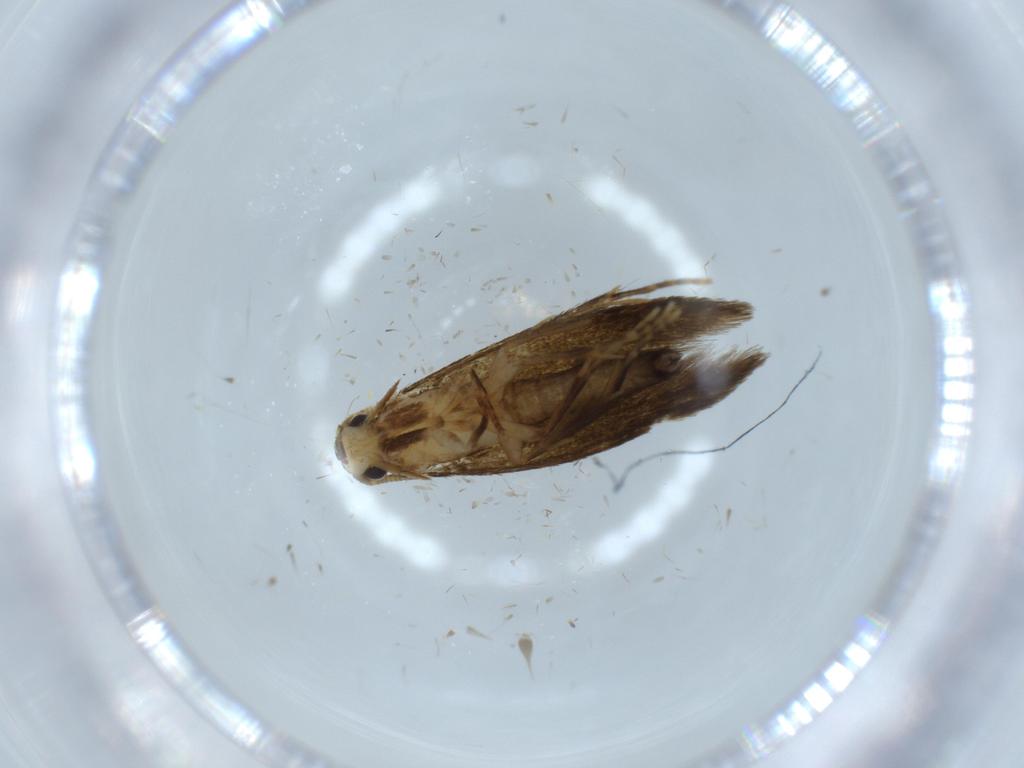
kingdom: Animalia
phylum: Arthropoda
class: Insecta
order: Lepidoptera
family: Tineidae
